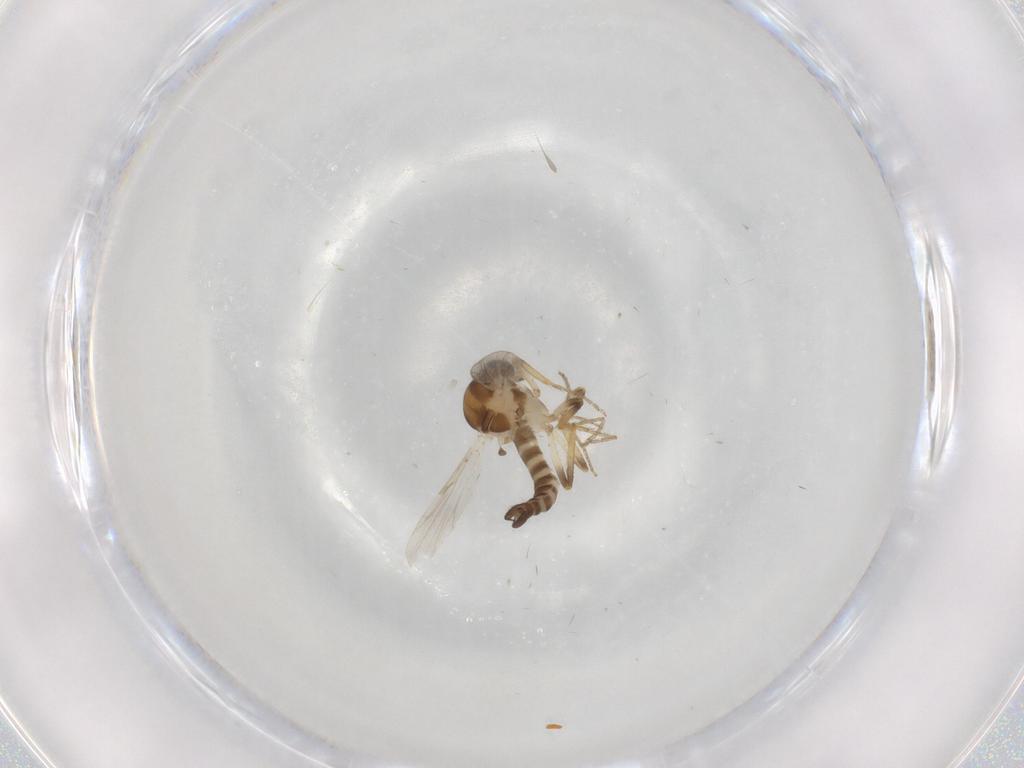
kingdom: Animalia
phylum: Arthropoda
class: Insecta
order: Diptera
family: Ceratopogonidae
